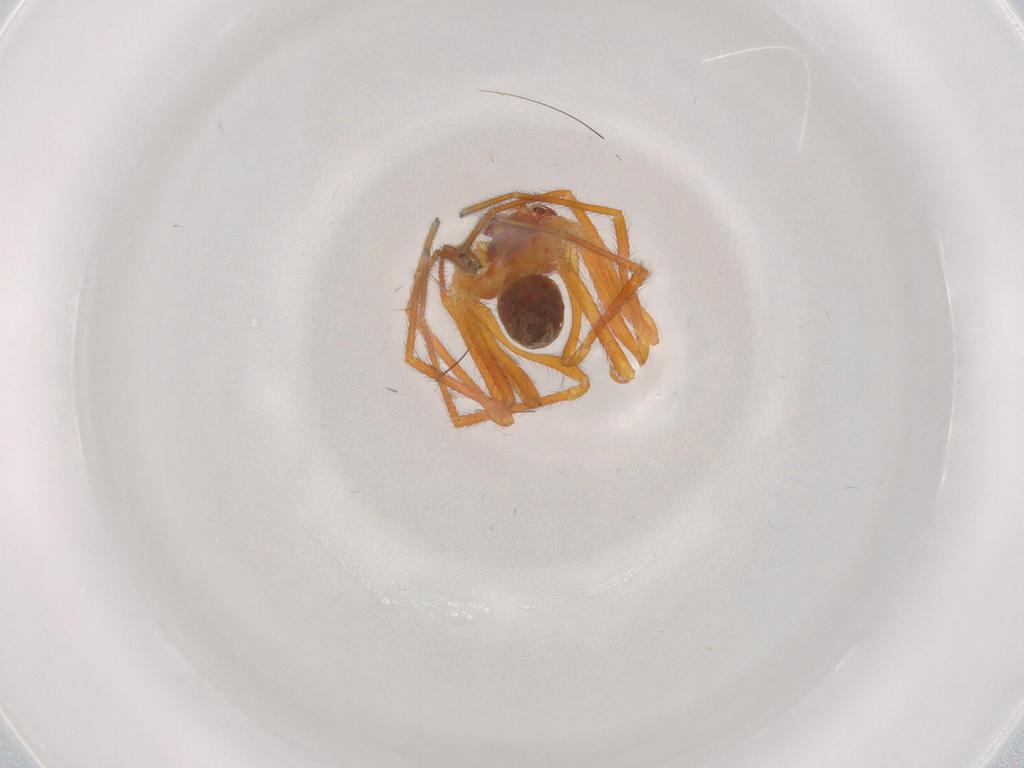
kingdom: Animalia
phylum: Arthropoda
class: Arachnida
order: Araneae
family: Linyphiidae
